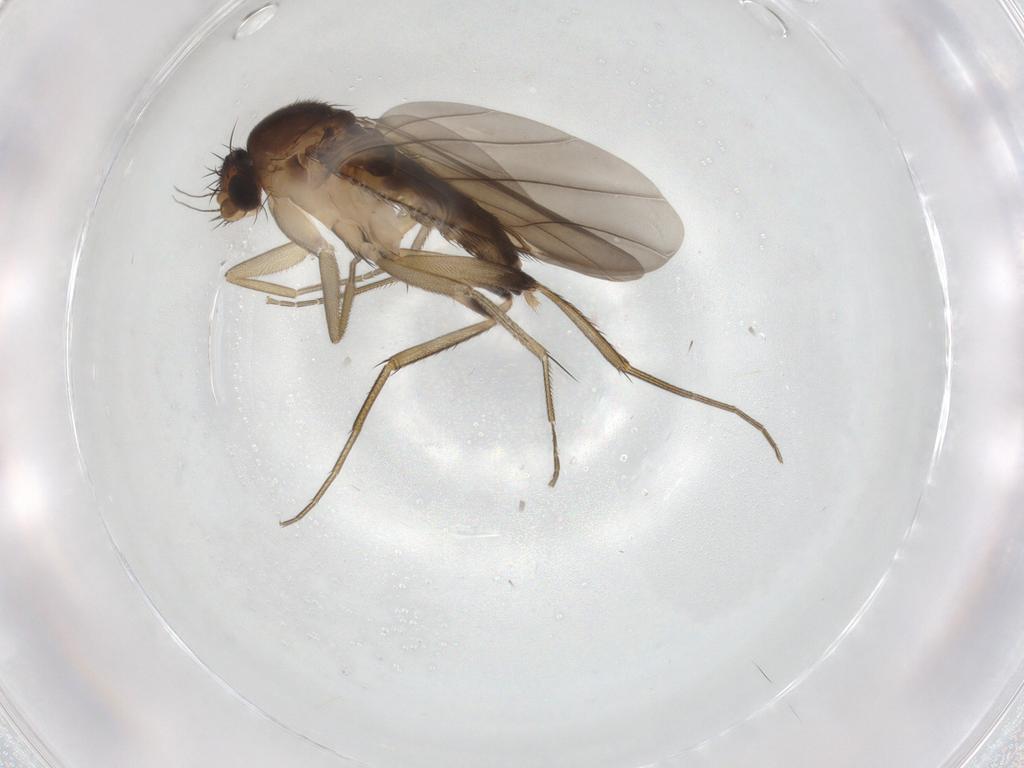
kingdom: Animalia
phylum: Arthropoda
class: Insecta
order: Diptera
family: Phoridae
